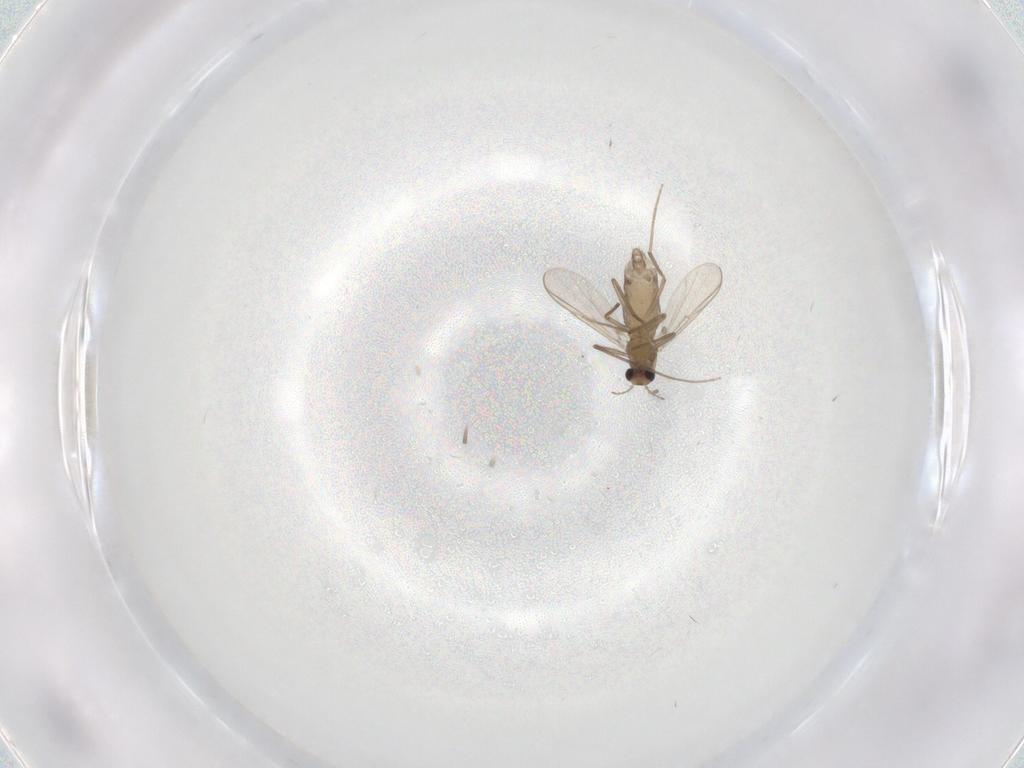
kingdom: Animalia
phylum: Arthropoda
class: Insecta
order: Diptera
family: Chironomidae
